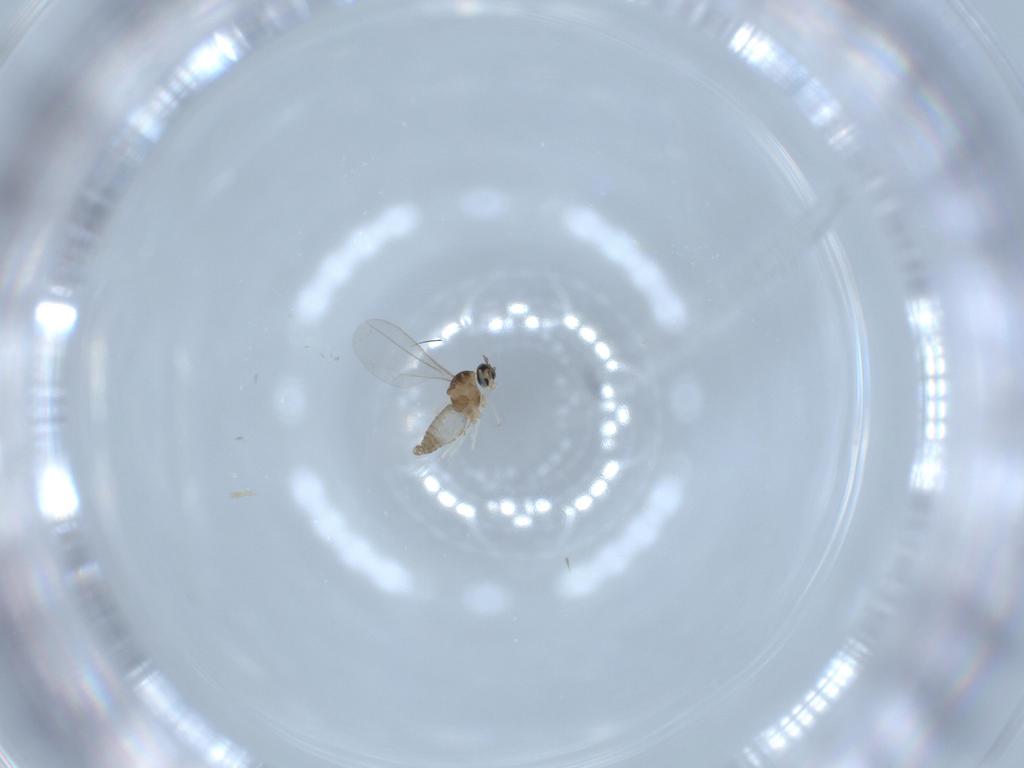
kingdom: Animalia
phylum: Arthropoda
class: Insecta
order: Diptera
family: Cecidomyiidae
